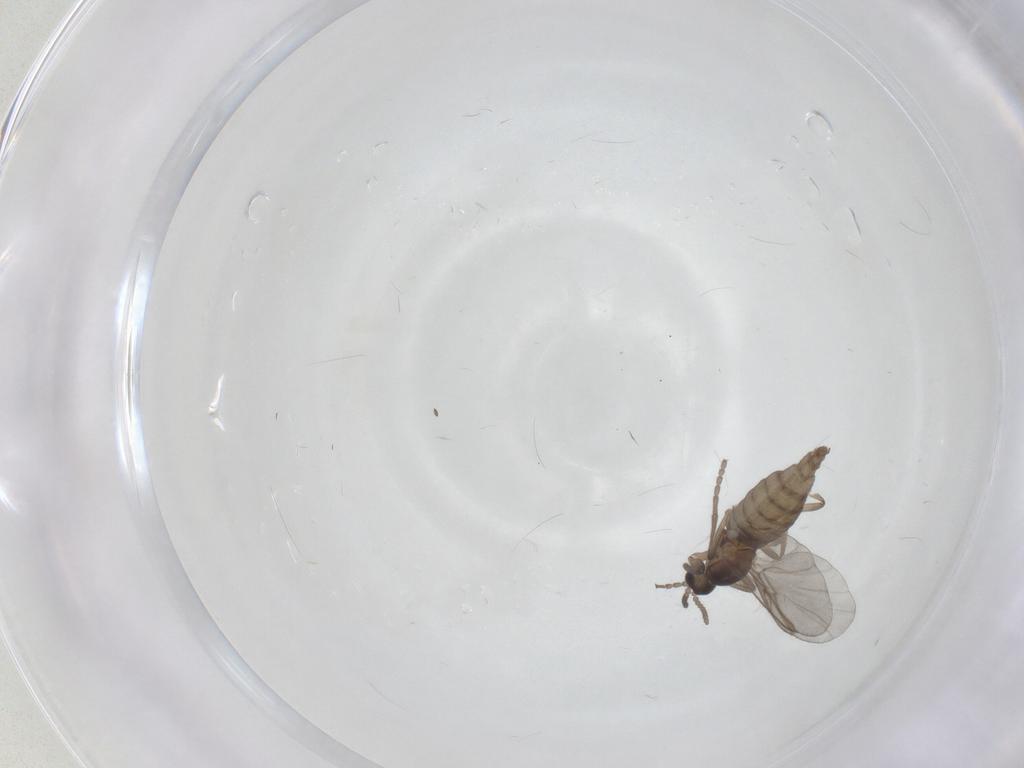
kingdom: Animalia
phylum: Arthropoda
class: Insecta
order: Diptera
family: Cecidomyiidae
